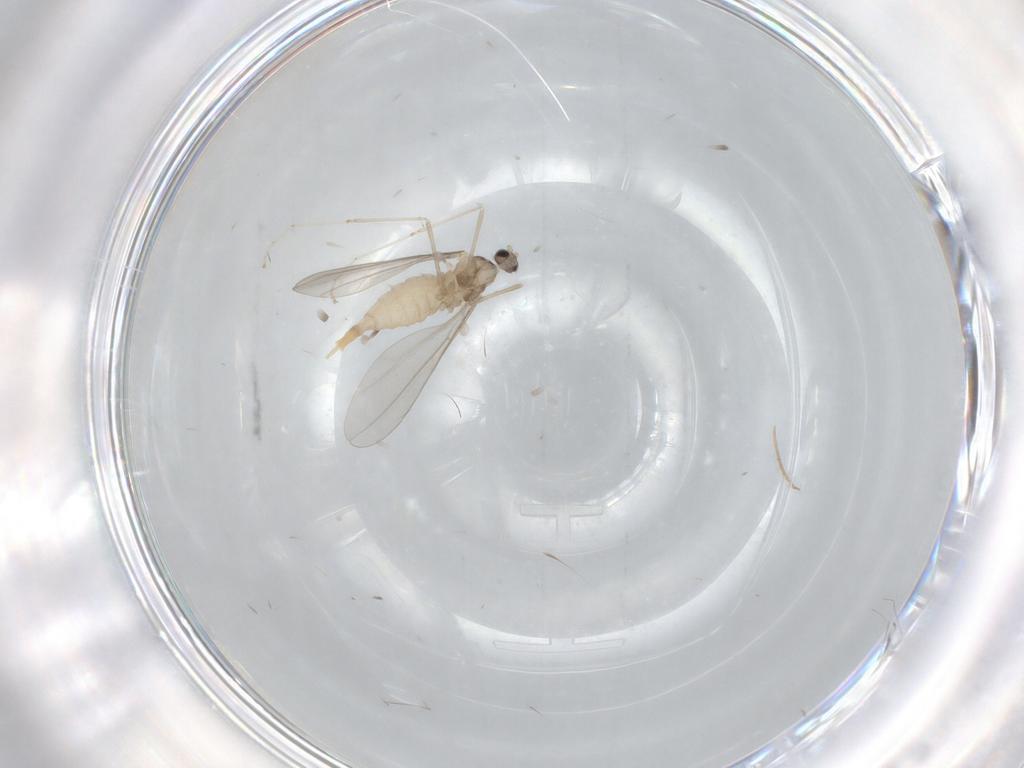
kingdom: Animalia
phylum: Arthropoda
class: Insecta
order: Diptera
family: Cecidomyiidae
